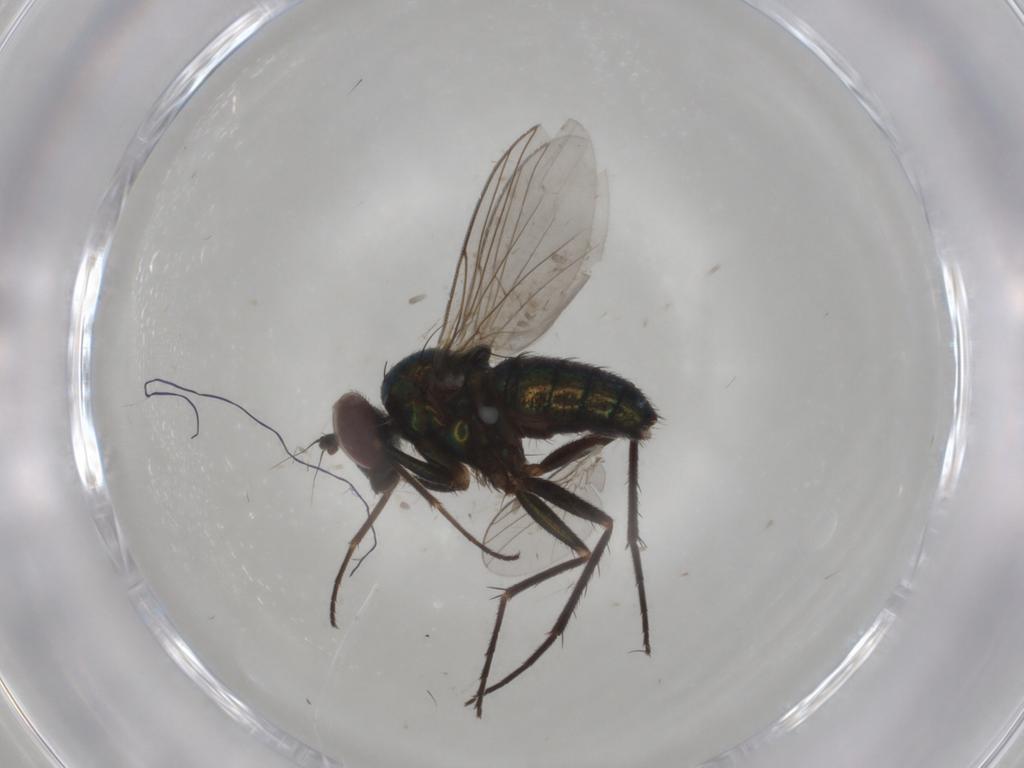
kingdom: Animalia
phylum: Arthropoda
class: Insecta
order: Diptera
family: Dolichopodidae
